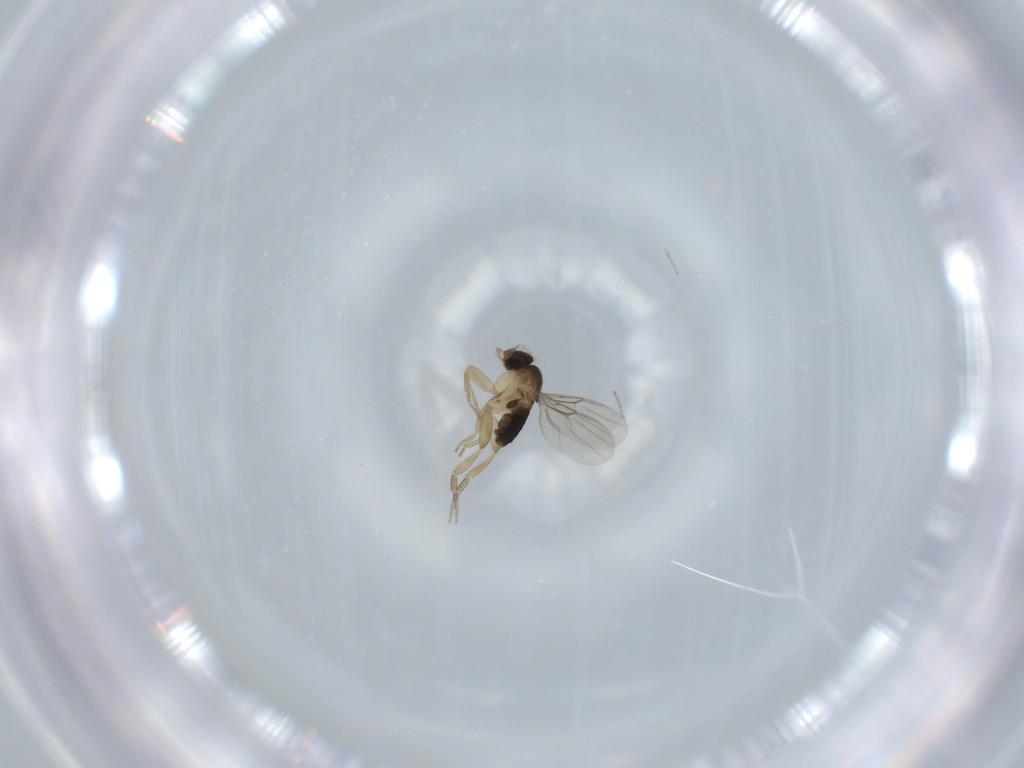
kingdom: Animalia
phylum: Arthropoda
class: Insecta
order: Diptera
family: Phoridae
